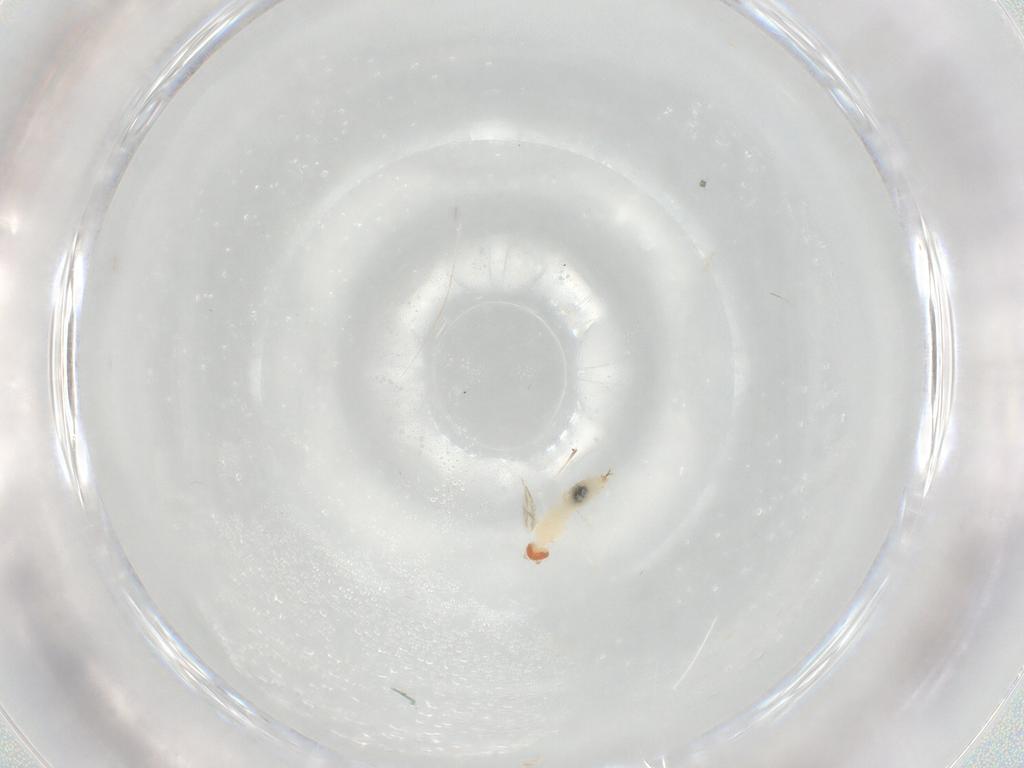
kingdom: Animalia
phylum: Arthropoda
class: Insecta
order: Diptera
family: Cecidomyiidae
